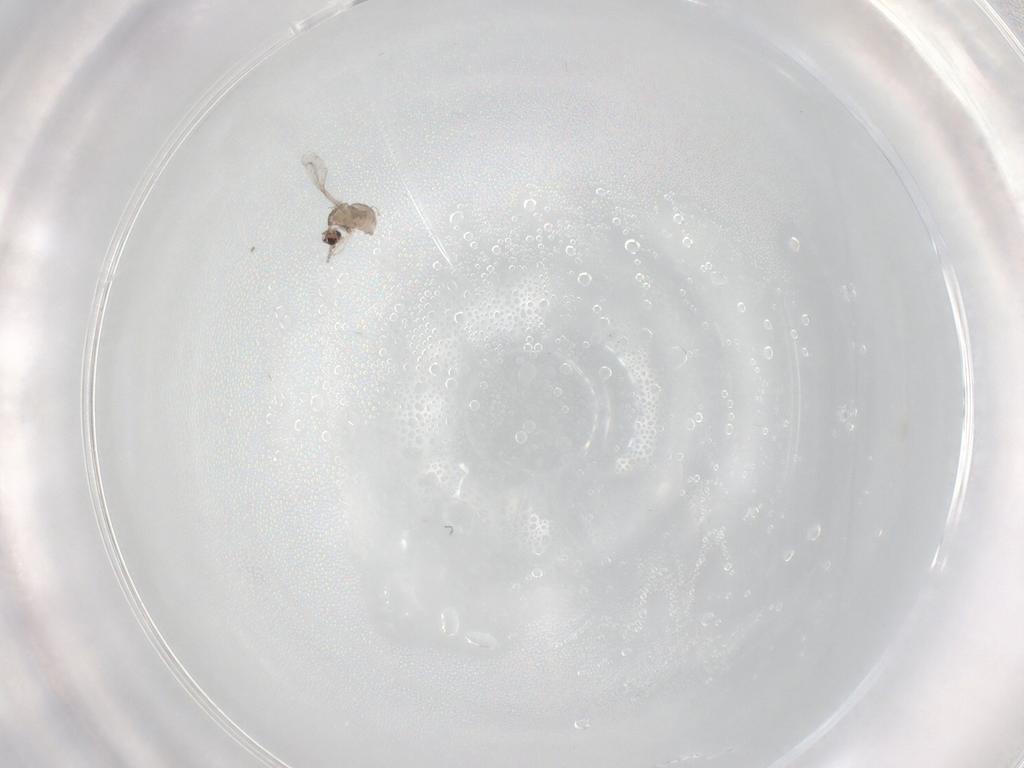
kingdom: Animalia
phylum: Arthropoda
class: Insecta
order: Diptera
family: Cecidomyiidae
